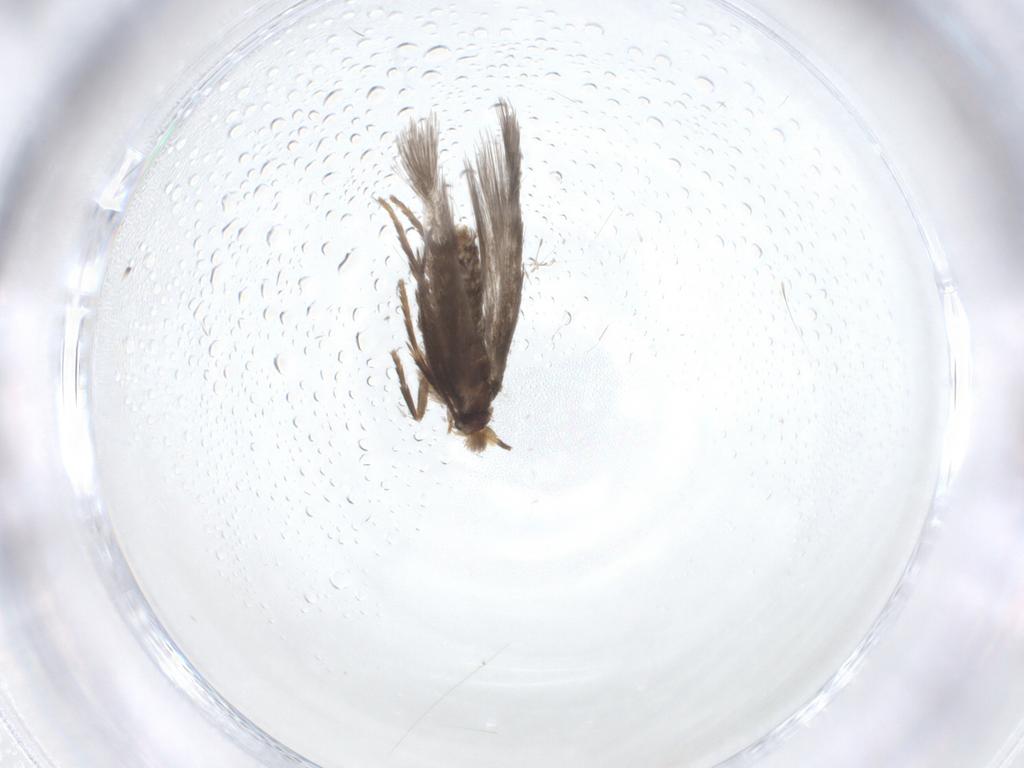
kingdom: Animalia
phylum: Arthropoda
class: Insecta
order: Lepidoptera
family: Nepticulidae
